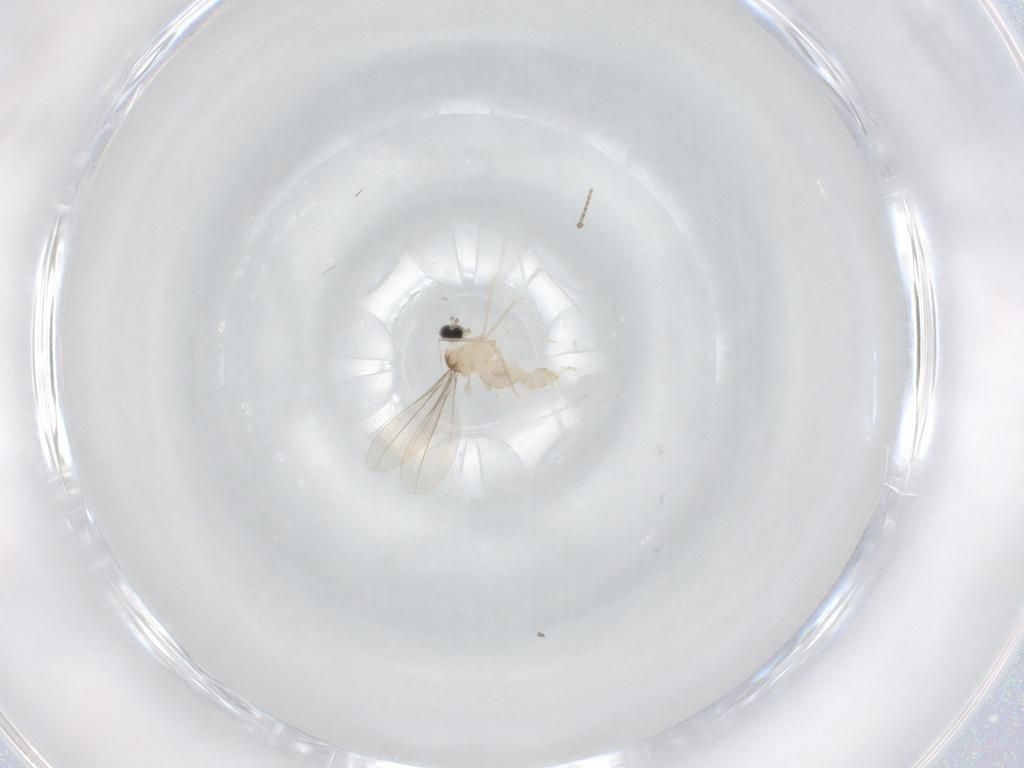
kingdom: Animalia
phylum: Arthropoda
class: Insecta
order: Diptera
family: Cecidomyiidae
